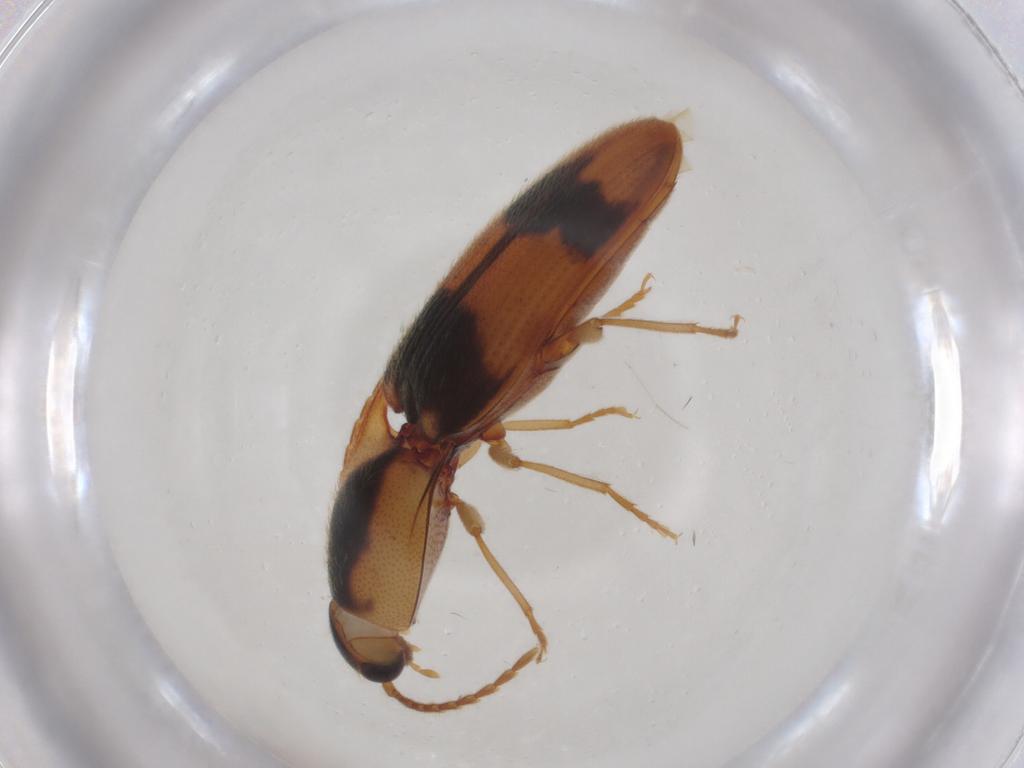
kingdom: Animalia
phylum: Arthropoda
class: Insecta
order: Coleoptera
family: Elateridae
